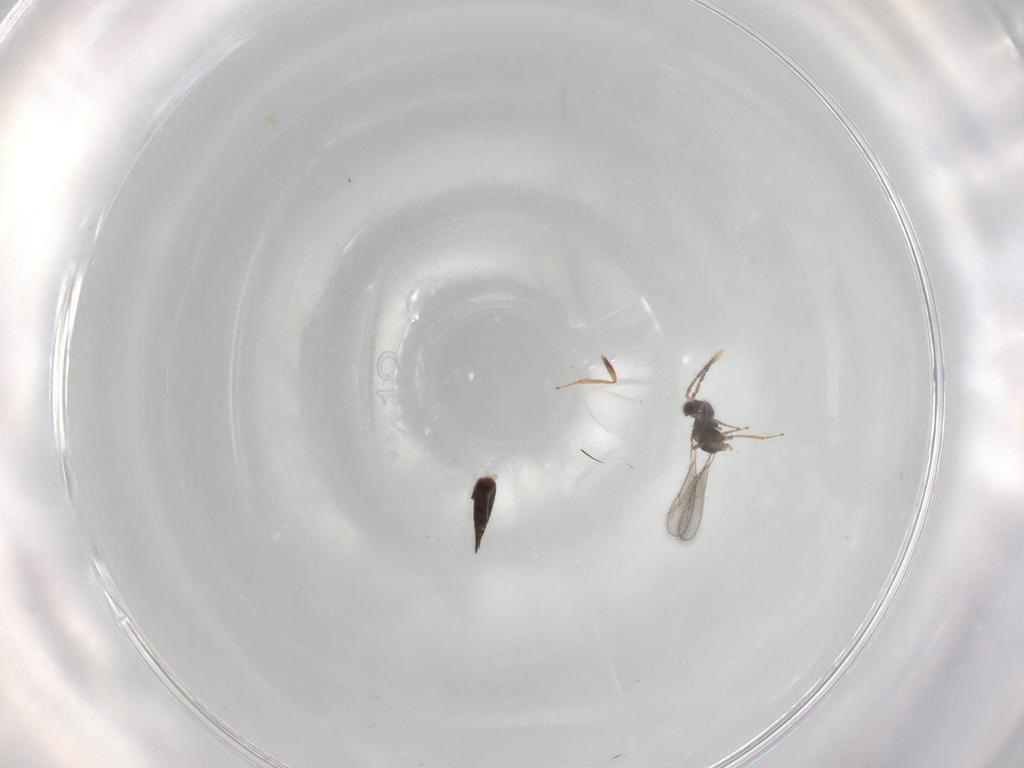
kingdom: Animalia
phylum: Arthropoda
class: Insecta
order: Hymenoptera
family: Eulophidae
